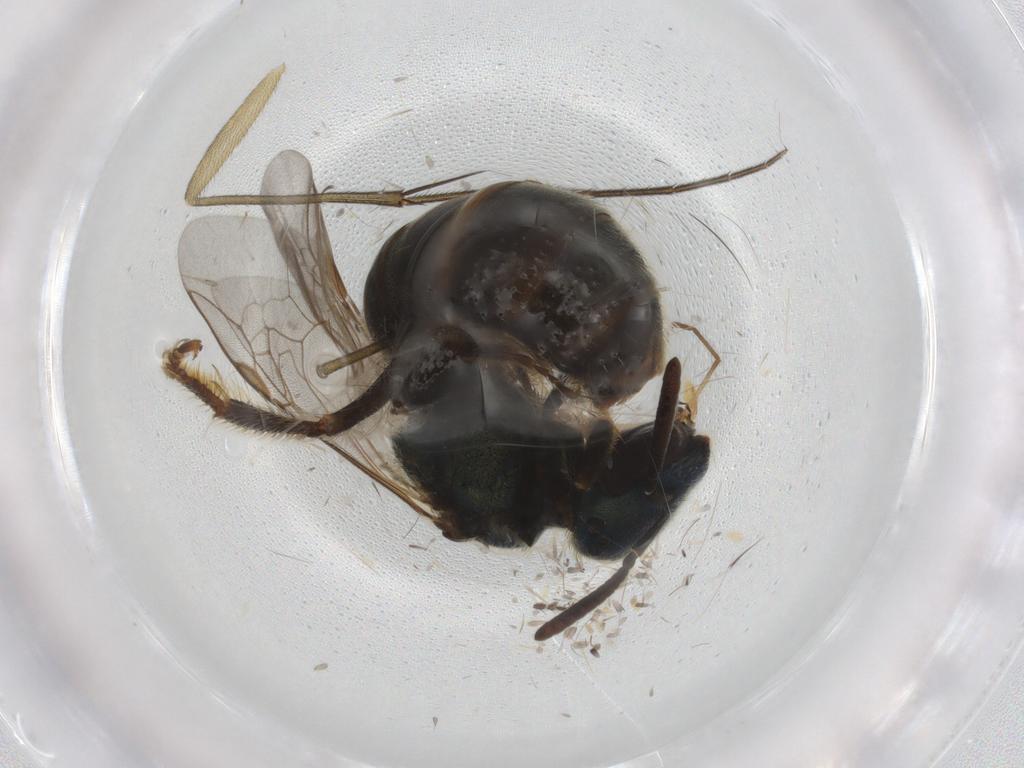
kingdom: Animalia
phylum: Arthropoda
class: Insecta
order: Hymenoptera
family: Halictidae
